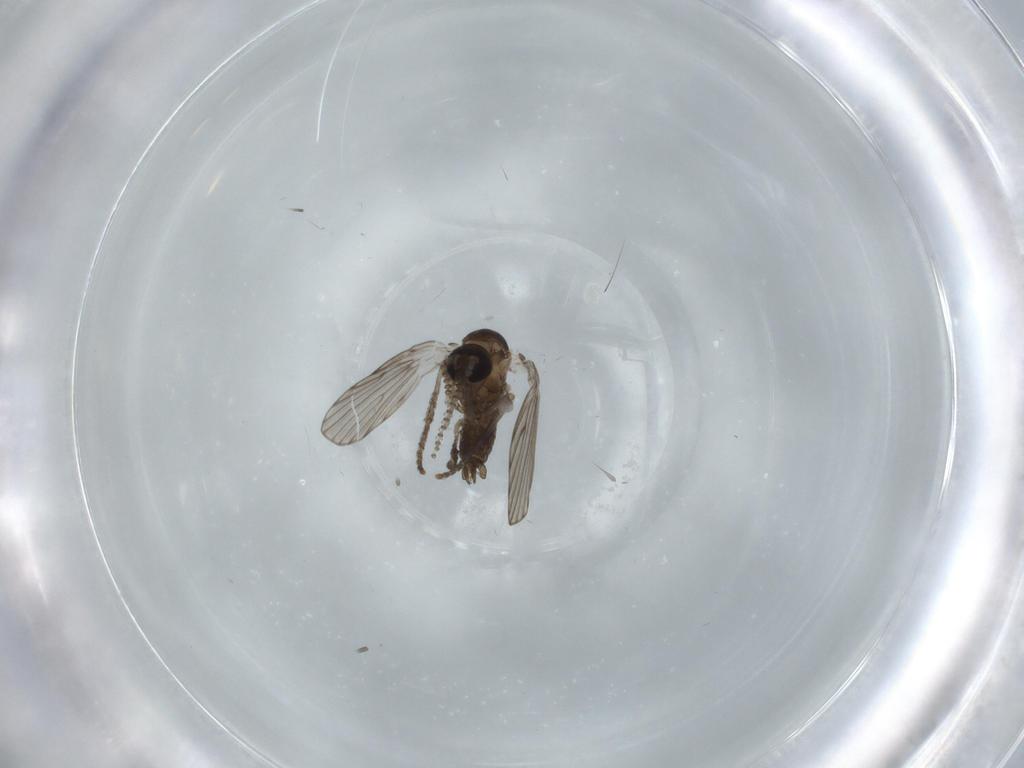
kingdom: Animalia
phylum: Arthropoda
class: Insecta
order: Diptera
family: Psychodidae
